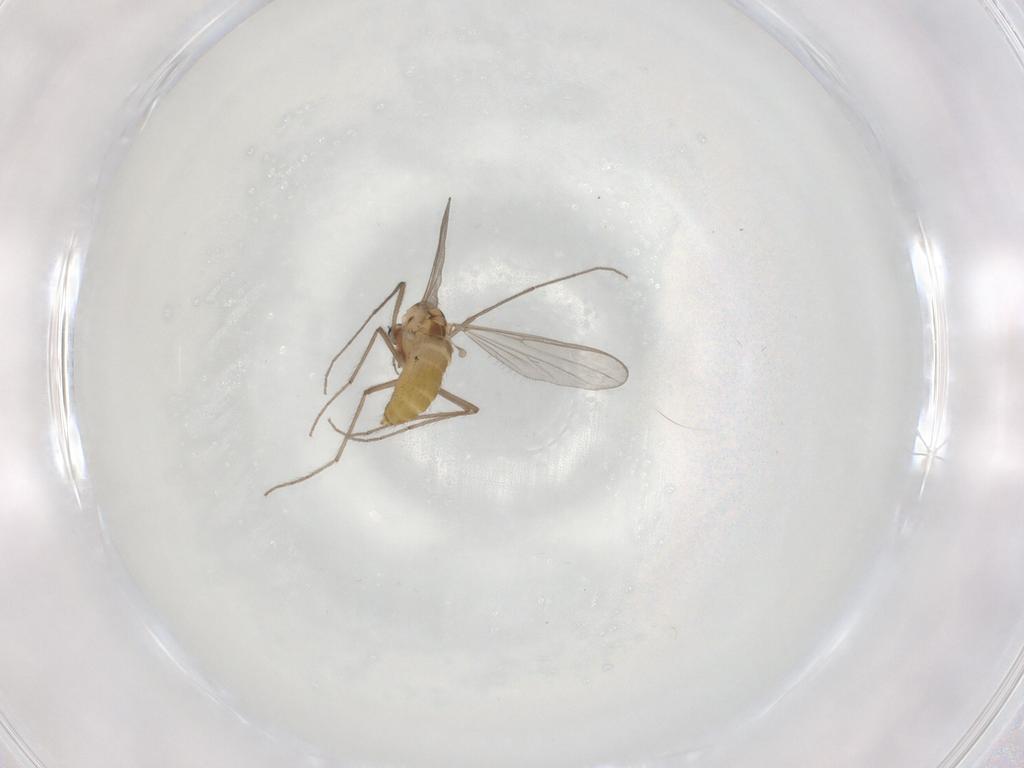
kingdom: Animalia
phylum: Arthropoda
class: Insecta
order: Diptera
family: Chironomidae
